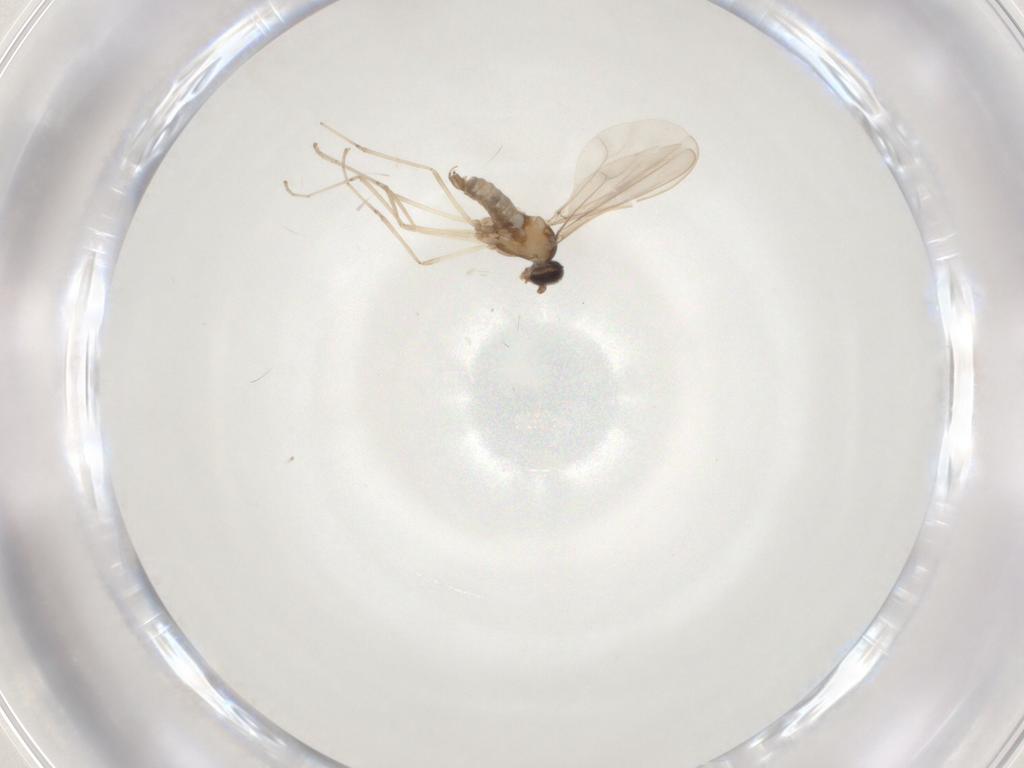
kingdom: Animalia
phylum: Arthropoda
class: Insecta
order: Diptera
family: Cecidomyiidae
